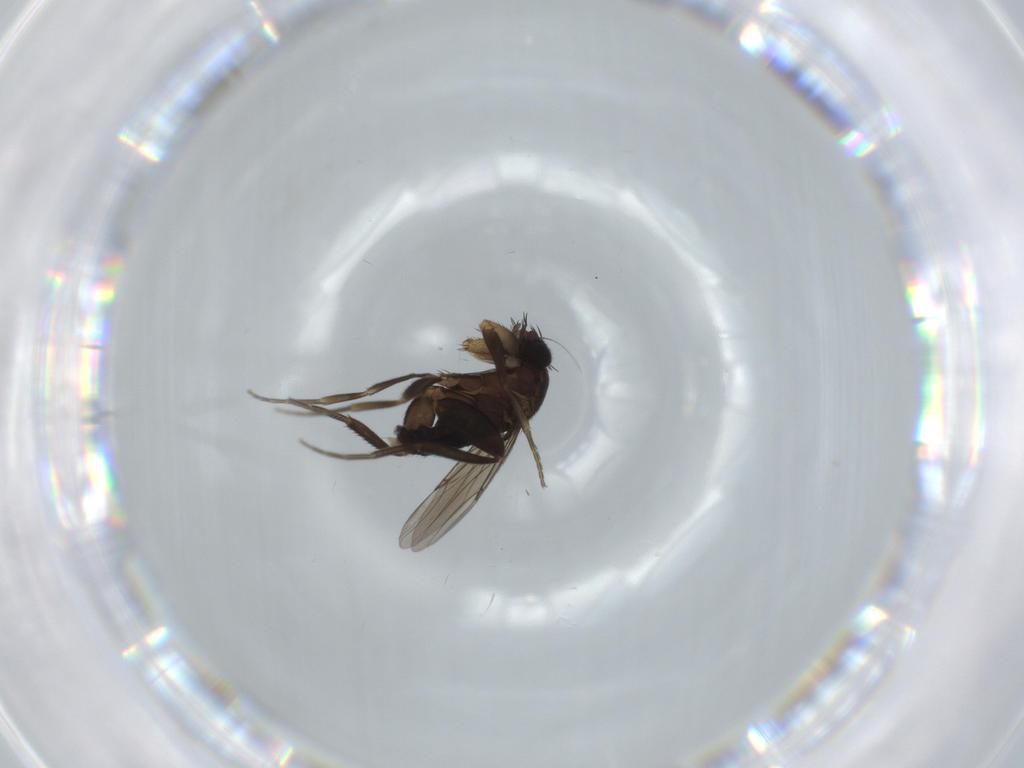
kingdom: Animalia
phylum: Arthropoda
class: Insecta
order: Diptera
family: Phoridae
